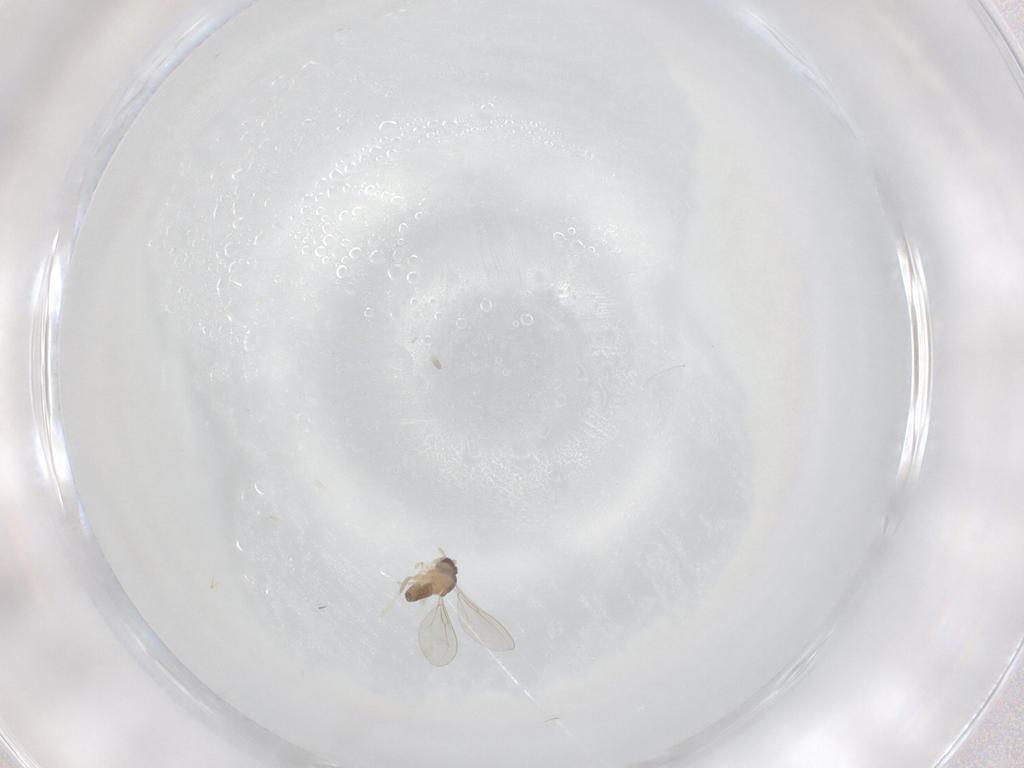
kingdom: Animalia
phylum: Arthropoda
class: Insecta
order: Diptera
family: Cecidomyiidae
